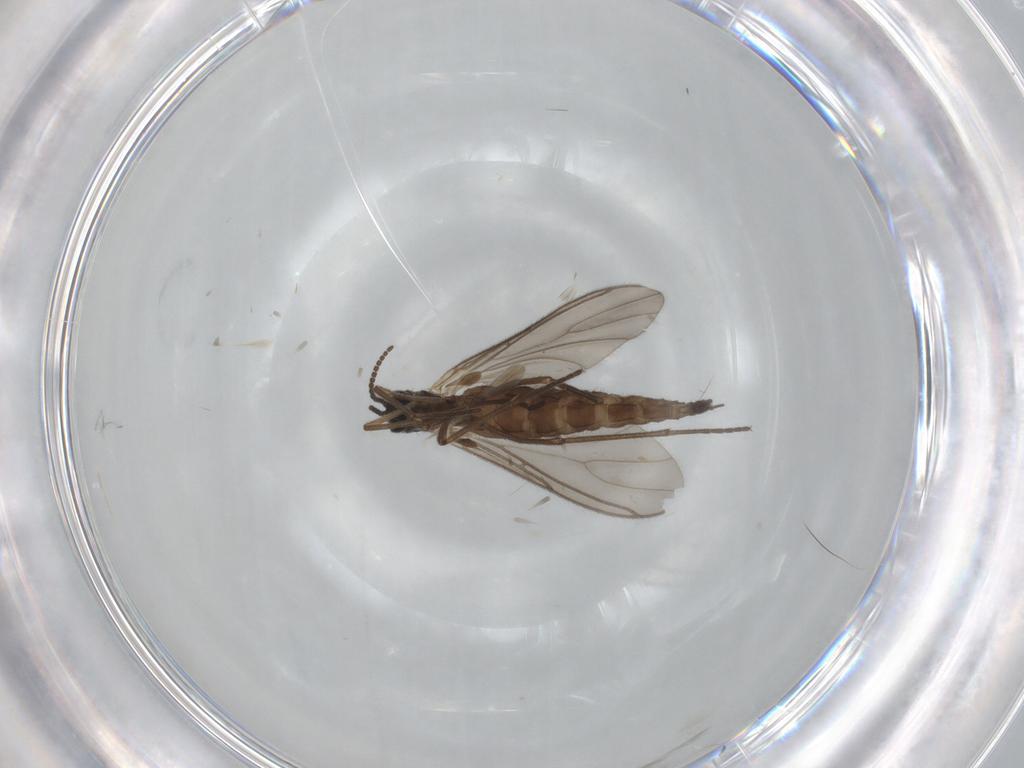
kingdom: Animalia
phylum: Arthropoda
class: Insecta
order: Diptera
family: Sciaridae
